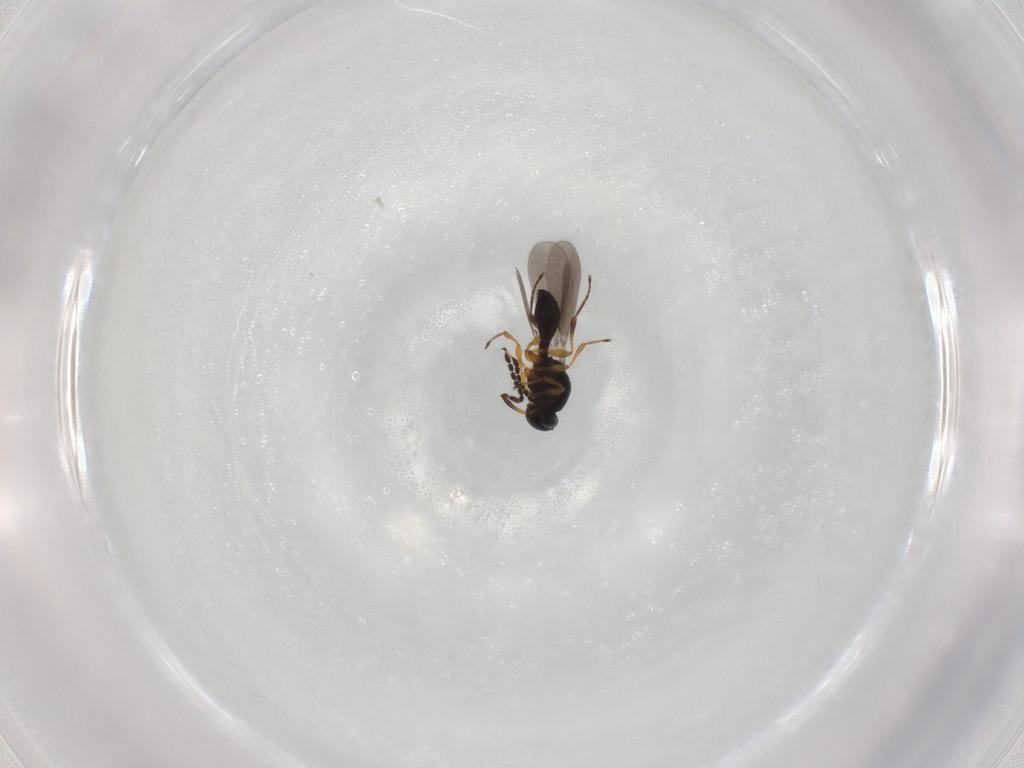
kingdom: Animalia
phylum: Arthropoda
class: Insecta
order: Hymenoptera
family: Platygastridae
